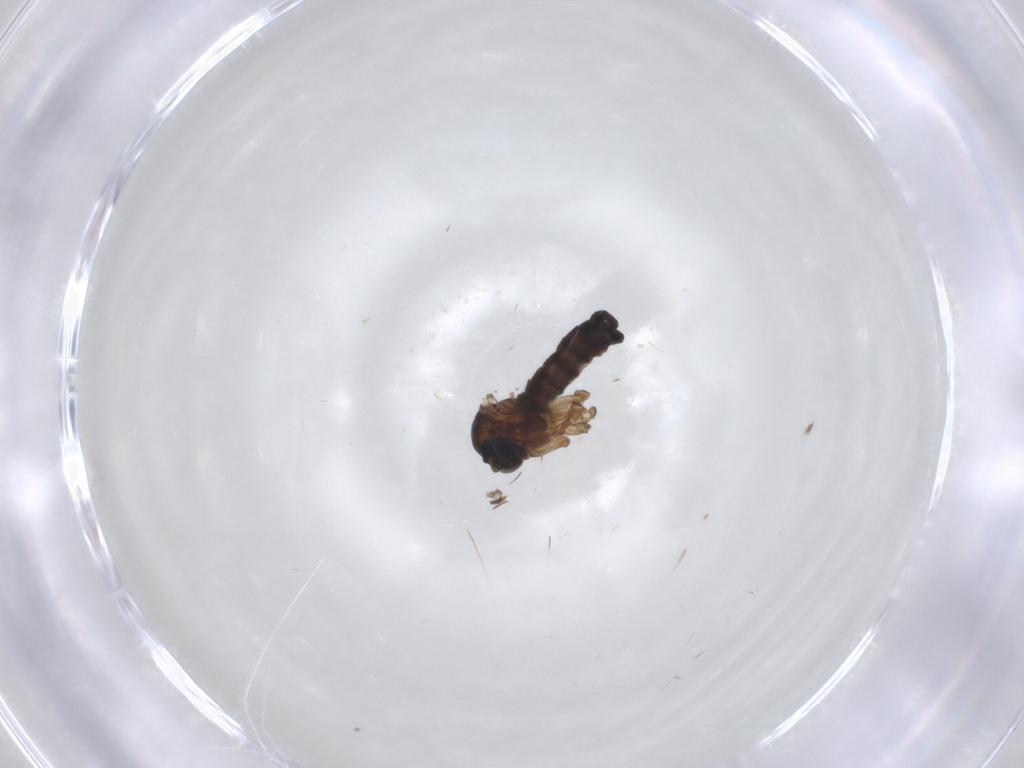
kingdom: Animalia
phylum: Arthropoda
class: Insecta
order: Diptera
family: Sciaridae
